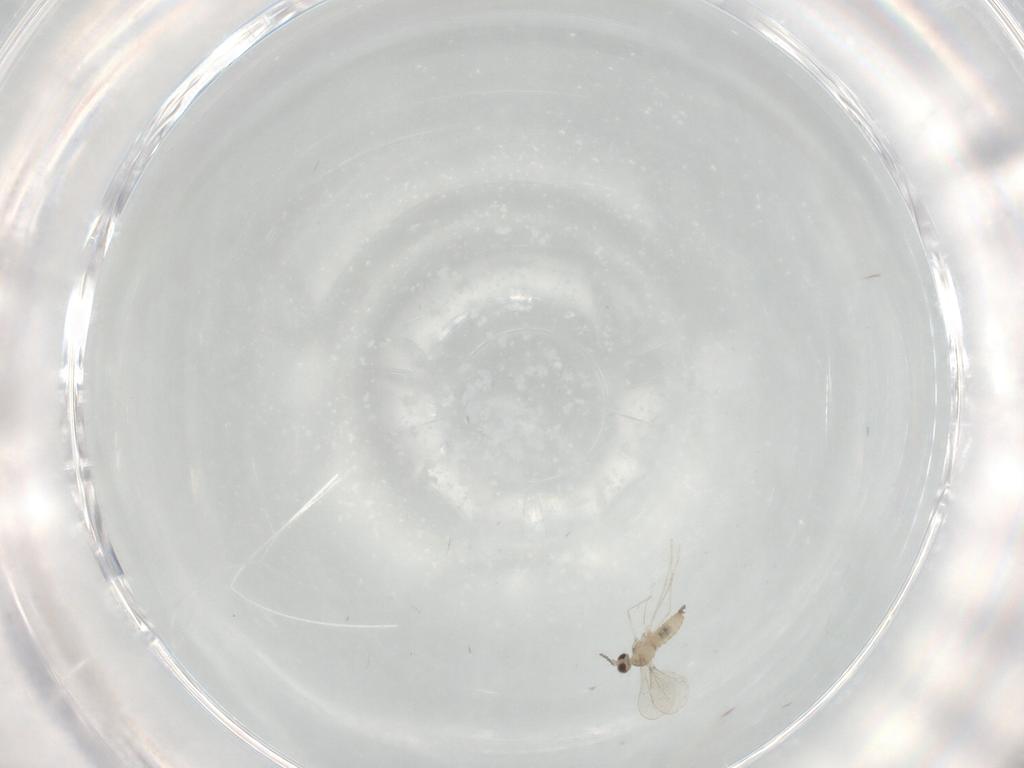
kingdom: Animalia
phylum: Arthropoda
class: Insecta
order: Diptera
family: Cecidomyiidae
